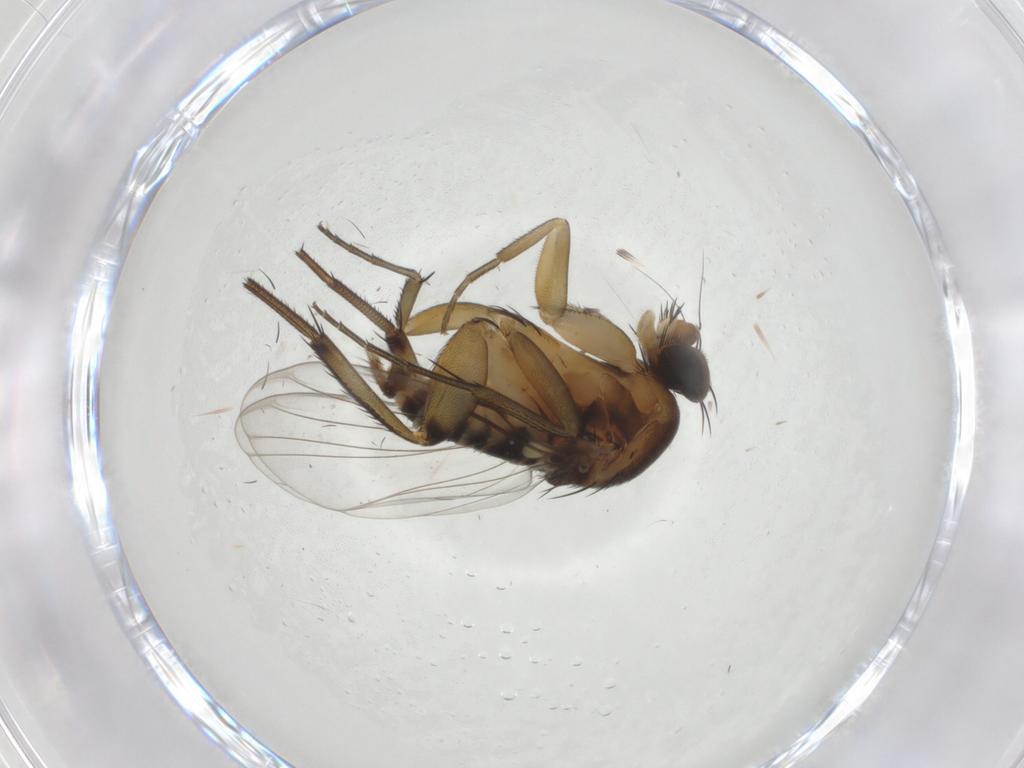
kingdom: Animalia
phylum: Arthropoda
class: Insecta
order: Diptera
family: Phoridae
